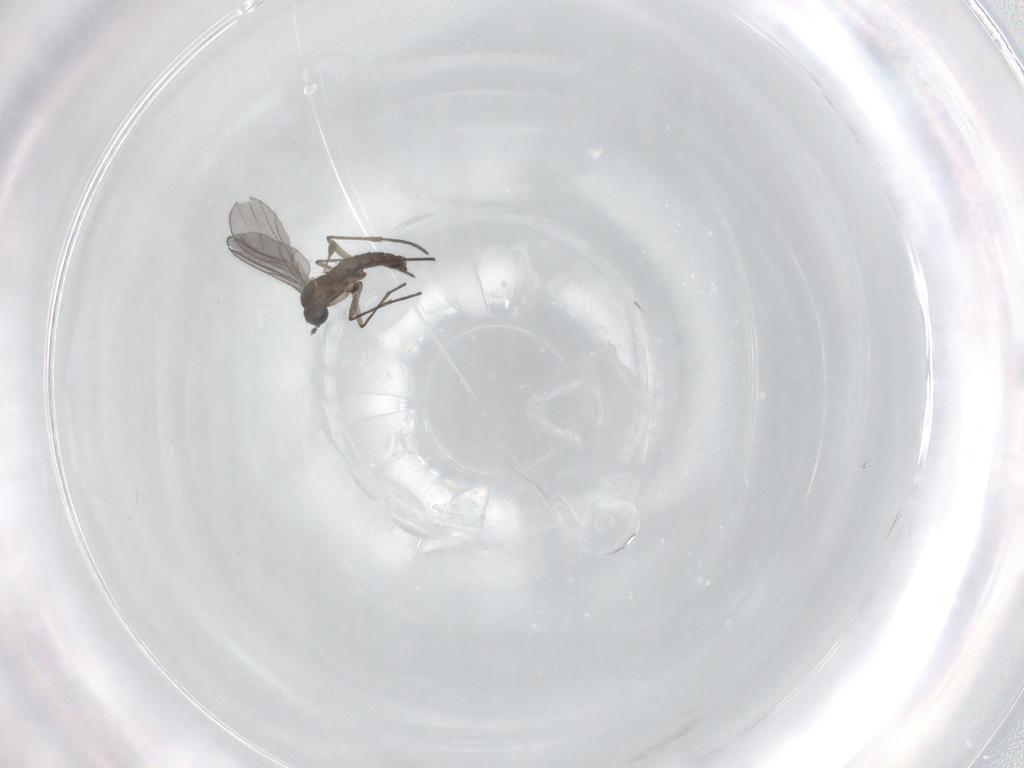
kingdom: Animalia
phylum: Arthropoda
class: Insecta
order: Diptera
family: Sciaridae
